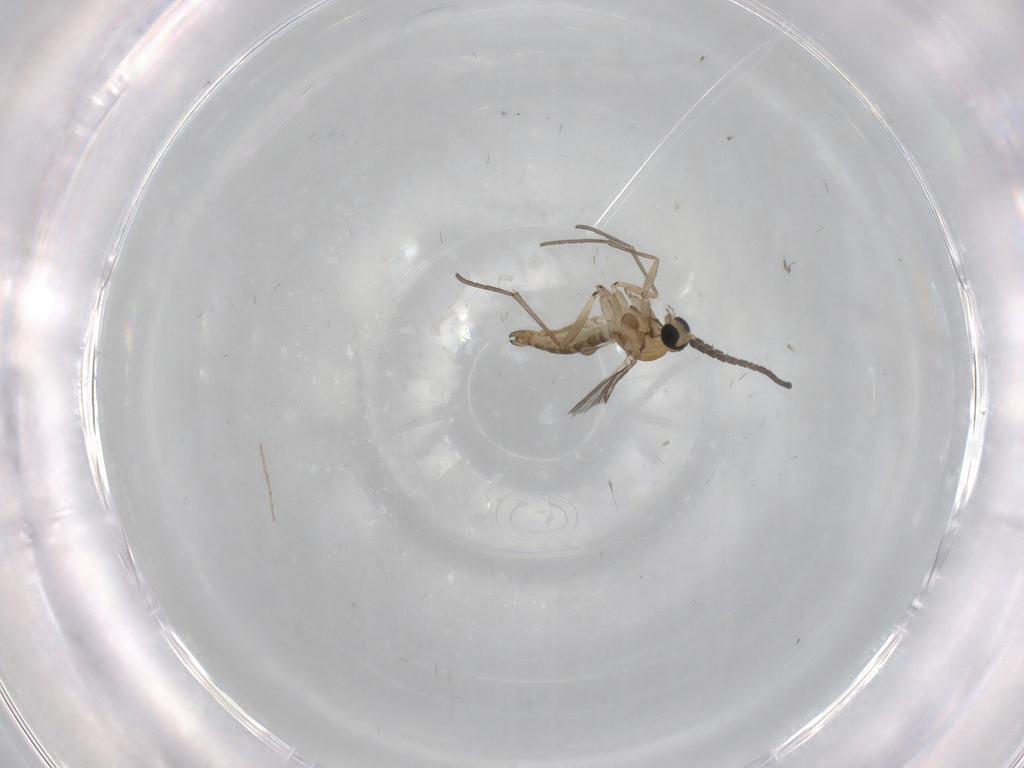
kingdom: Animalia
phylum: Arthropoda
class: Insecta
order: Diptera
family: Sciaridae
